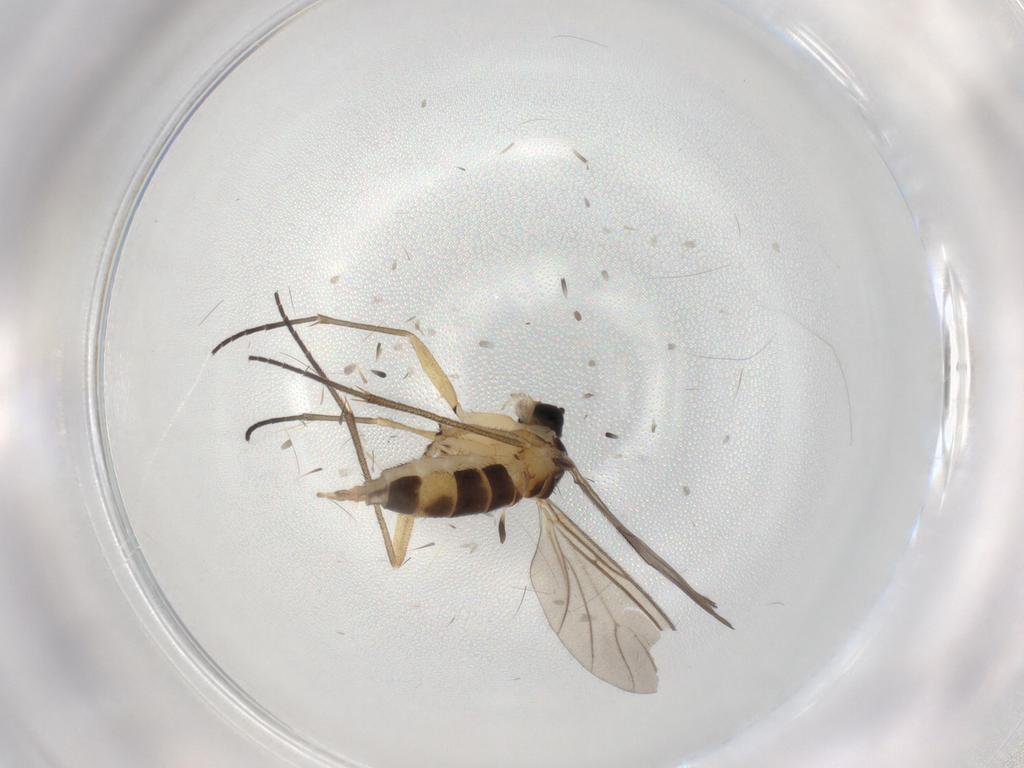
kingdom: Animalia
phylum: Arthropoda
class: Insecta
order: Diptera
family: Sciaridae
